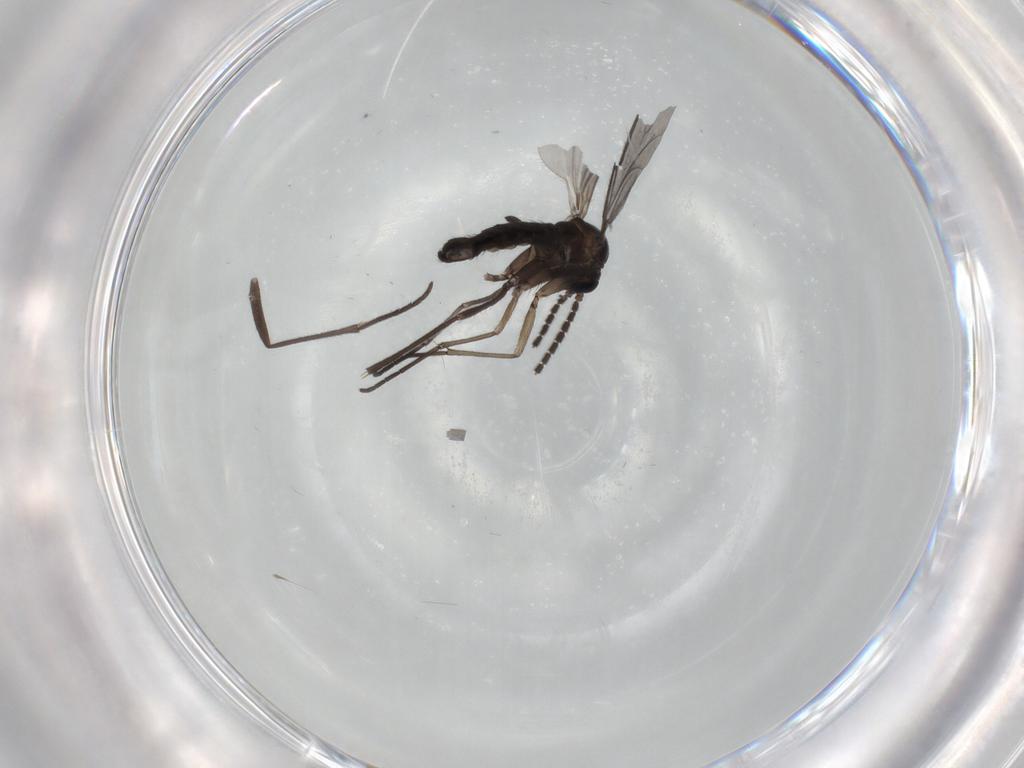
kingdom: Animalia
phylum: Arthropoda
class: Insecta
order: Diptera
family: Sciaridae
